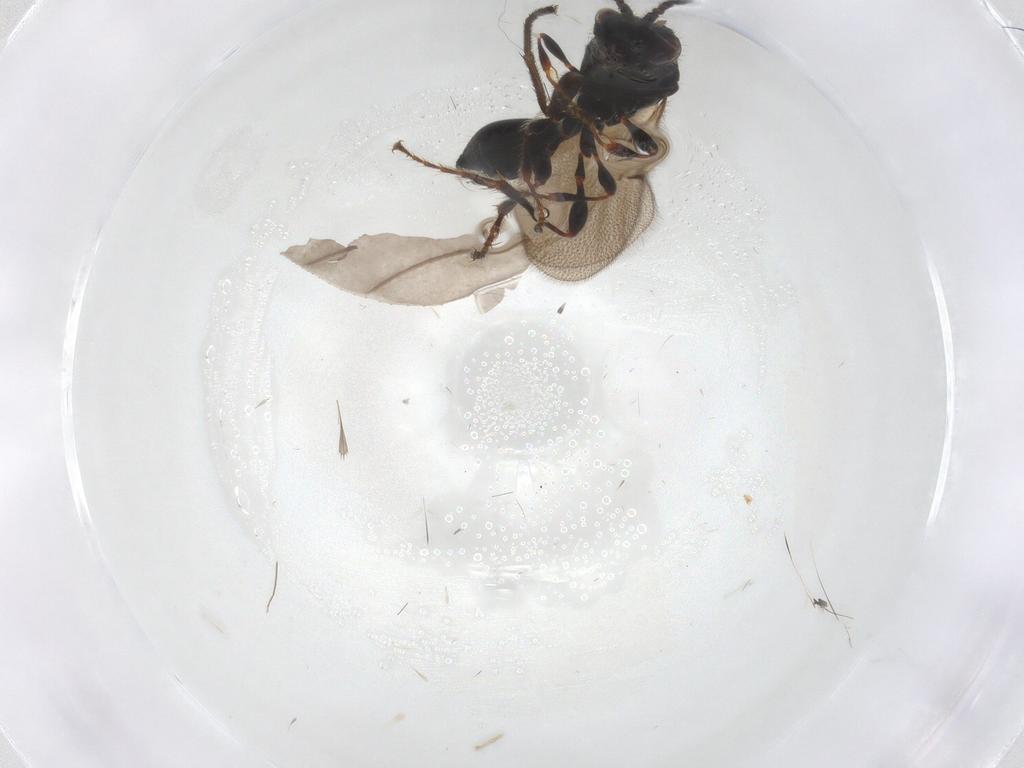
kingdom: Animalia
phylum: Arthropoda
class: Insecta
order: Hymenoptera
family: Diapriidae
